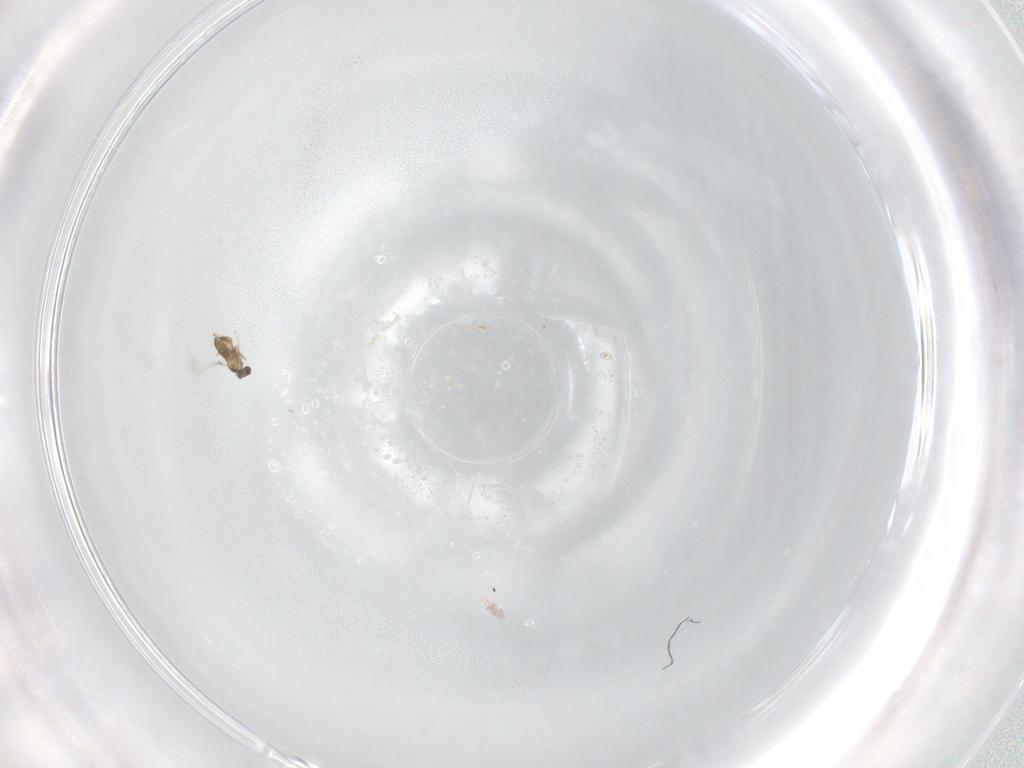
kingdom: Animalia
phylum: Arthropoda
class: Insecta
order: Hymenoptera
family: Mymaridae
